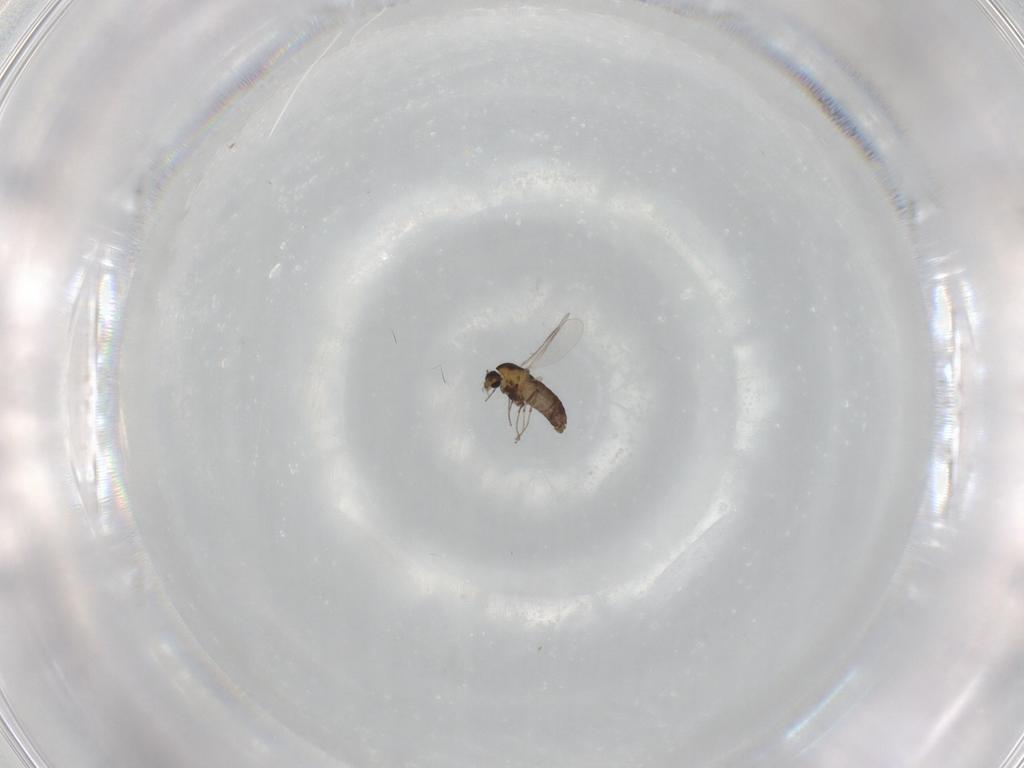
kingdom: Animalia
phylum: Arthropoda
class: Insecta
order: Diptera
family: Chironomidae
